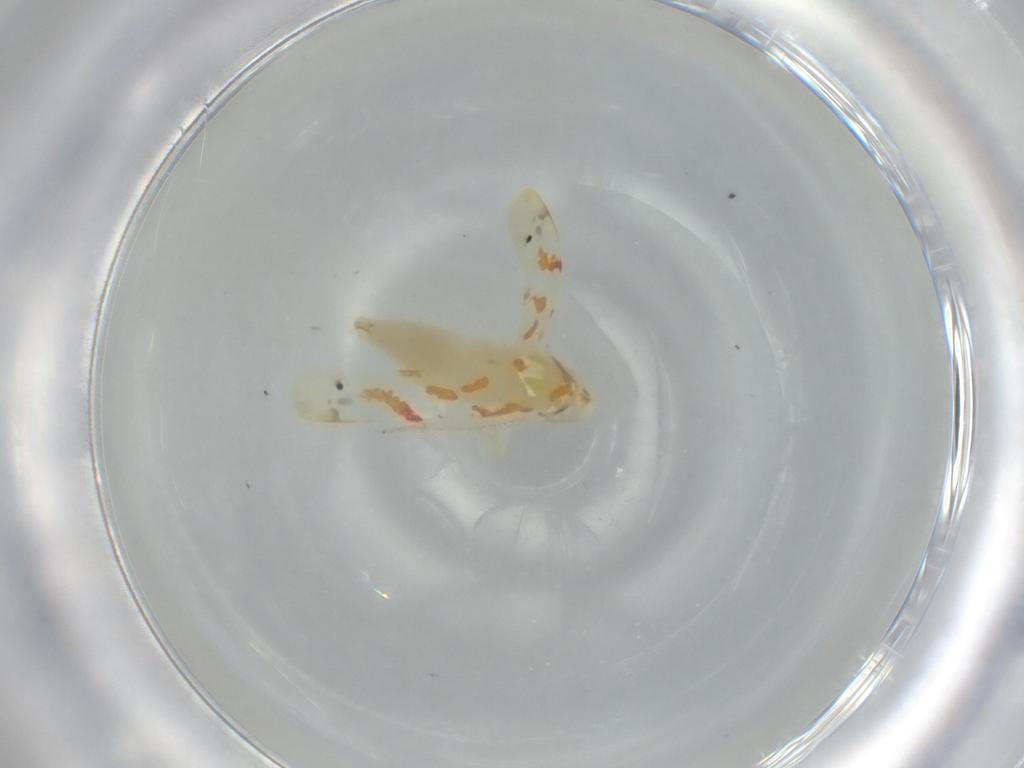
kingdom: Animalia
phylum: Arthropoda
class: Insecta
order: Hemiptera
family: Cicadellidae
